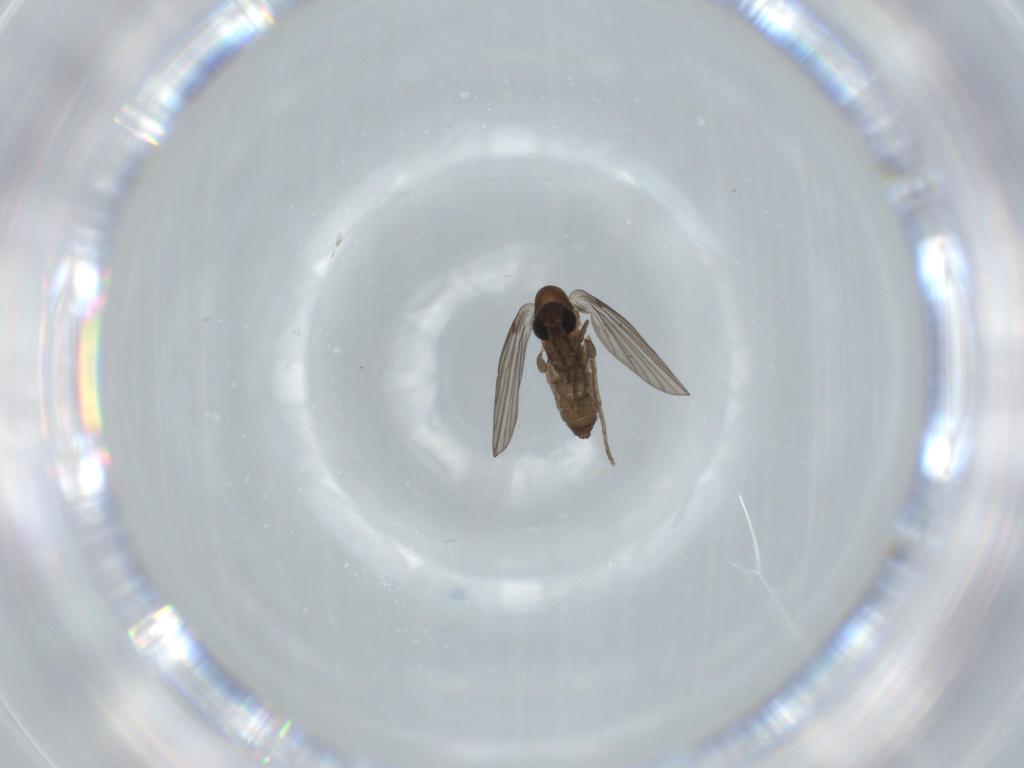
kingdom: Animalia
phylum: Arthropoda
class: Insecta
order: Diptera
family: Psychodidae
